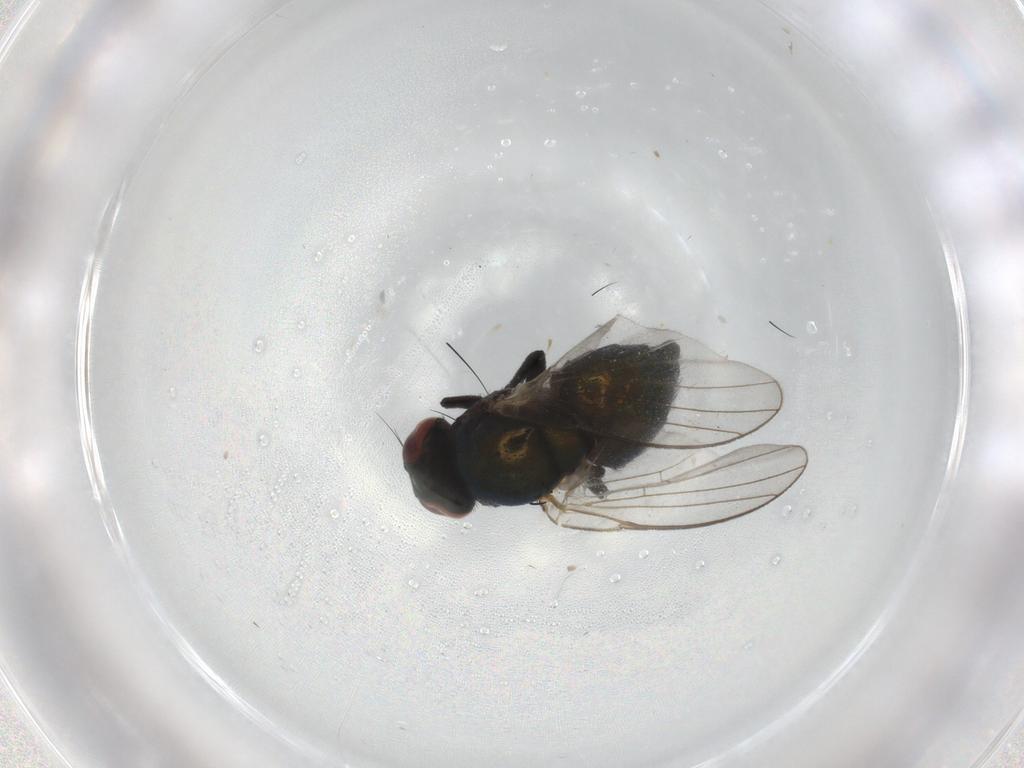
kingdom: Animalia
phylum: Arthropoda
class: Insecta
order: Diptera
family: Agromyzidae
